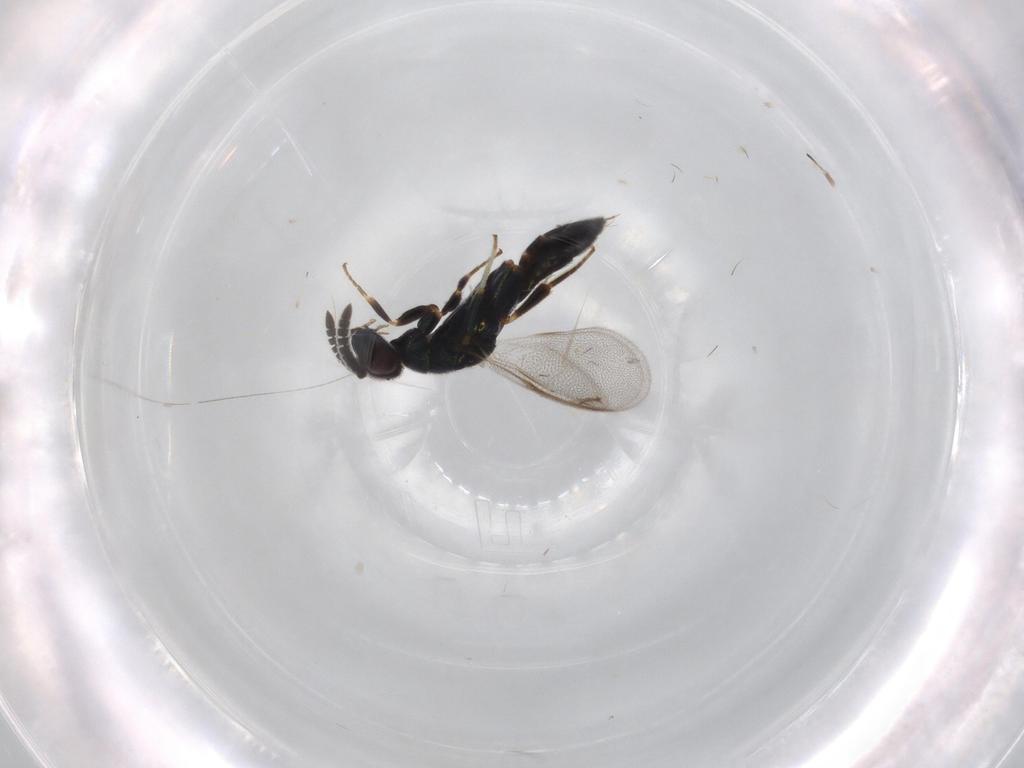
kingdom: Animalia
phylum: Arthropoda
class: Insecta
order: Hymenoptera
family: Cleonyminae
